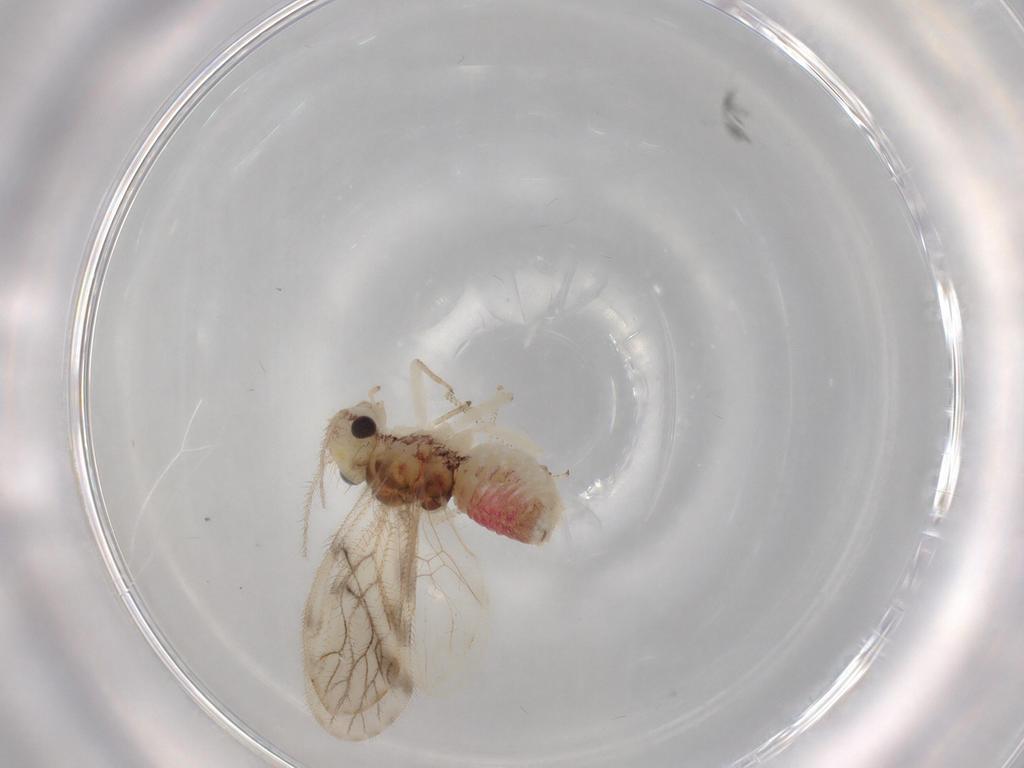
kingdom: Animalia
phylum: Arthropoda
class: Insecta
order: Psocodea
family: Pseudocaeciliidae
